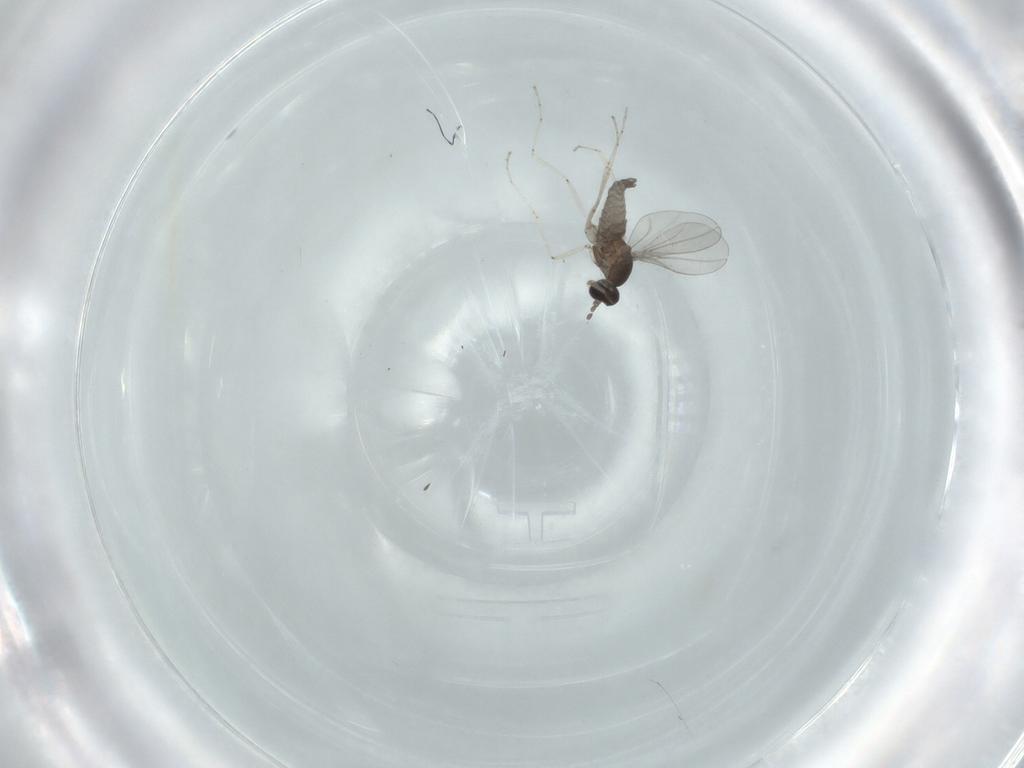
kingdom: Animalia
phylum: Arthropoda
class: Insecta
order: Diptera
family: Cecidomyiidae
